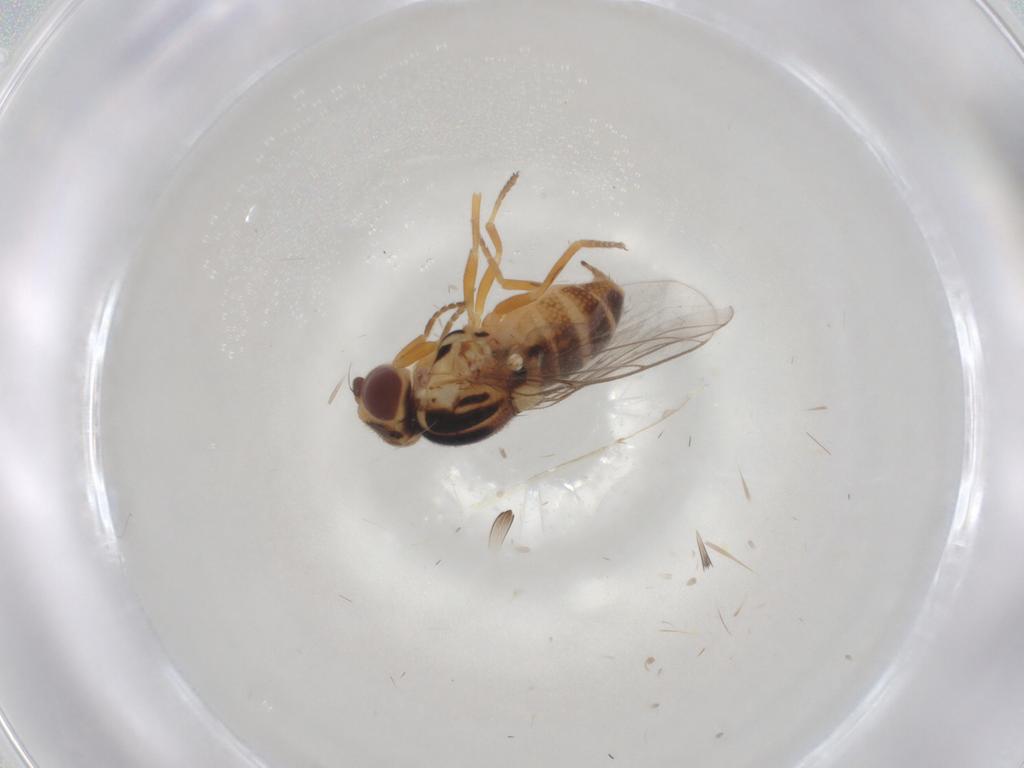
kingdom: Animalia
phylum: Arthropoda
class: Insecta
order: Diptera
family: Chloropidae
